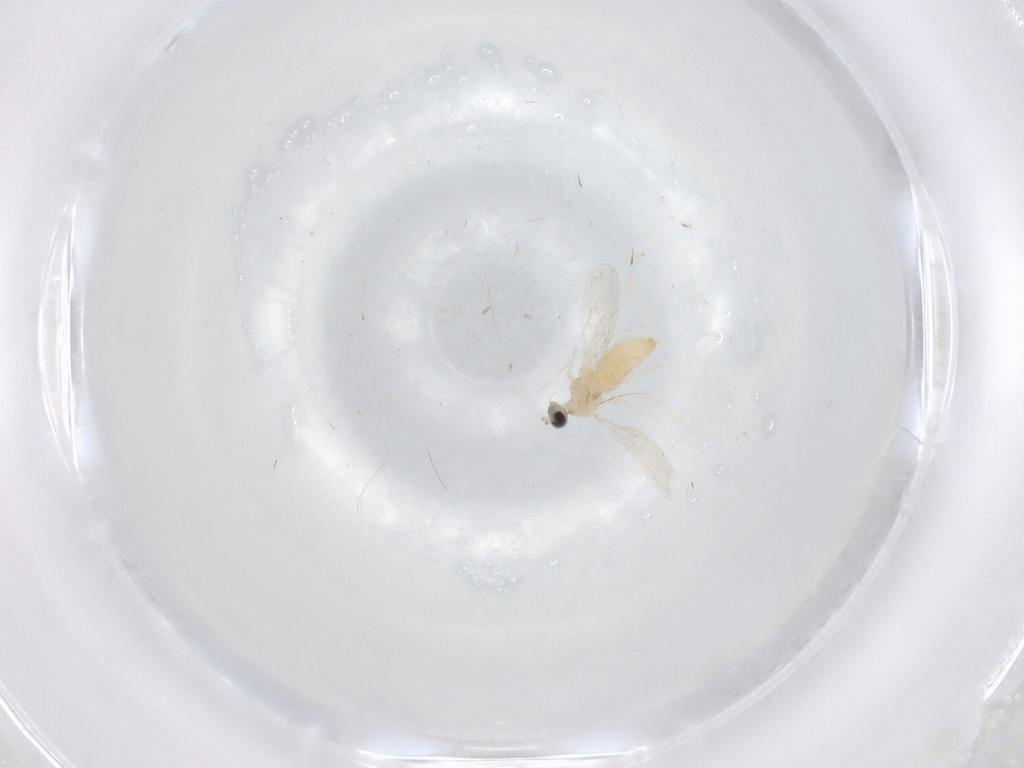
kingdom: Animalia
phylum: Arthropoda
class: Insecta
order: Diptera
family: Cecidomyiidae
